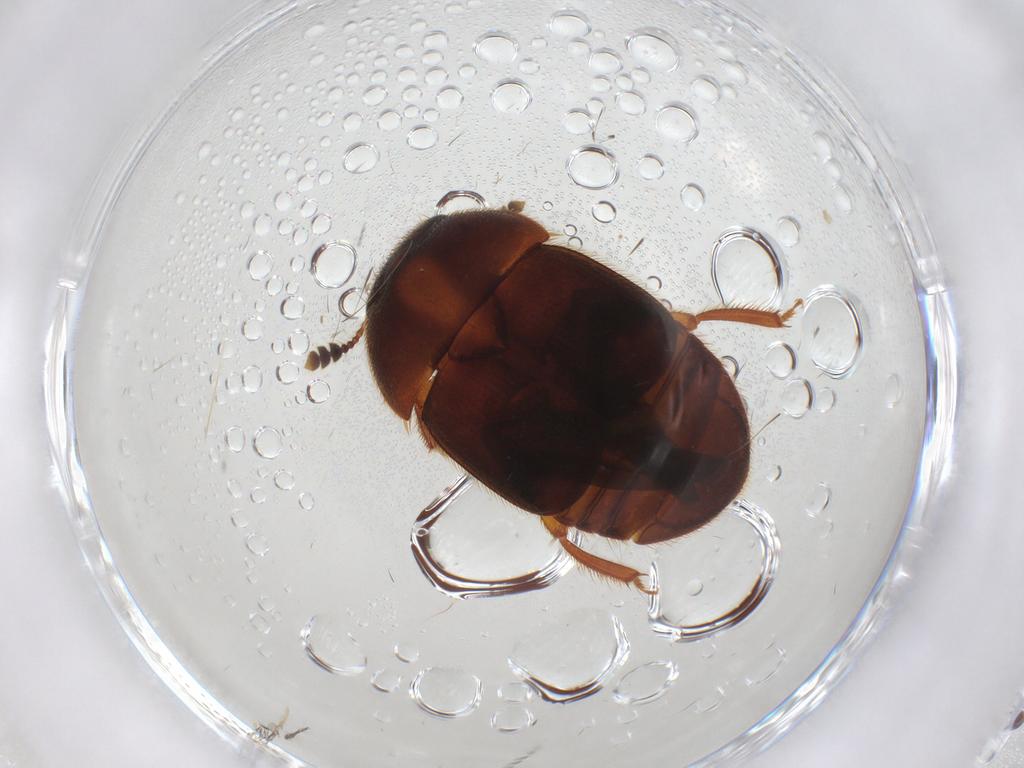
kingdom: Animalia
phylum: Arthropoda
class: Insecta
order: Coleoptera
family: Nitidulidae
